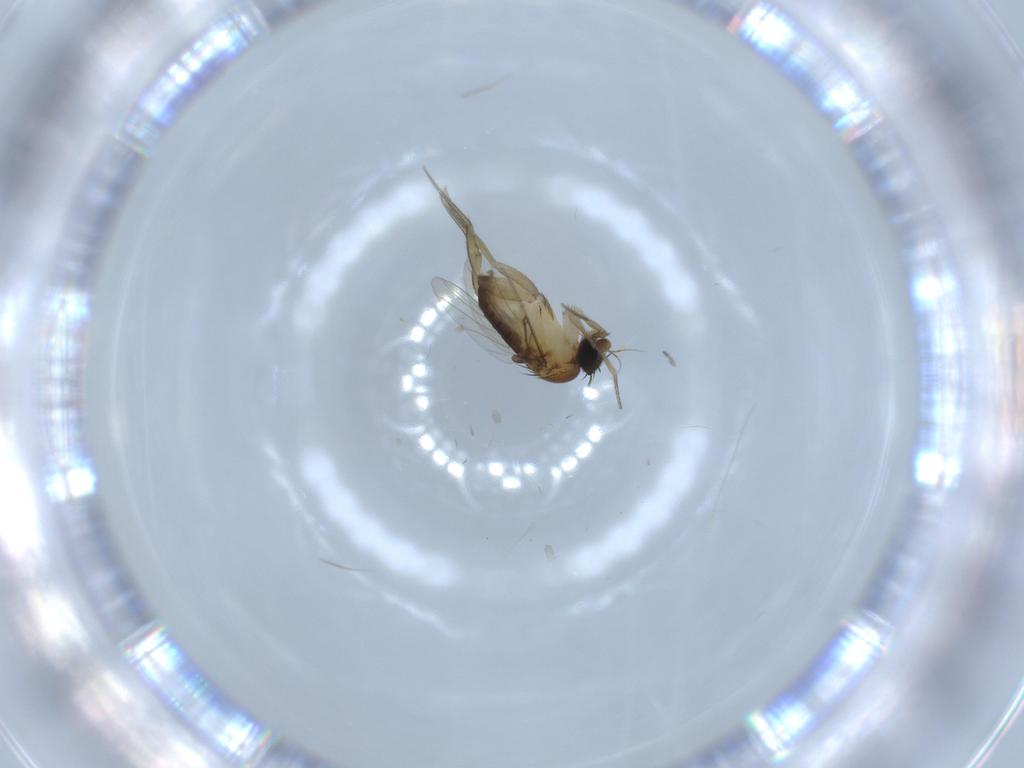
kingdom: Animalia
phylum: Arthropoda
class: Insecta
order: Diptera
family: Phoridae
